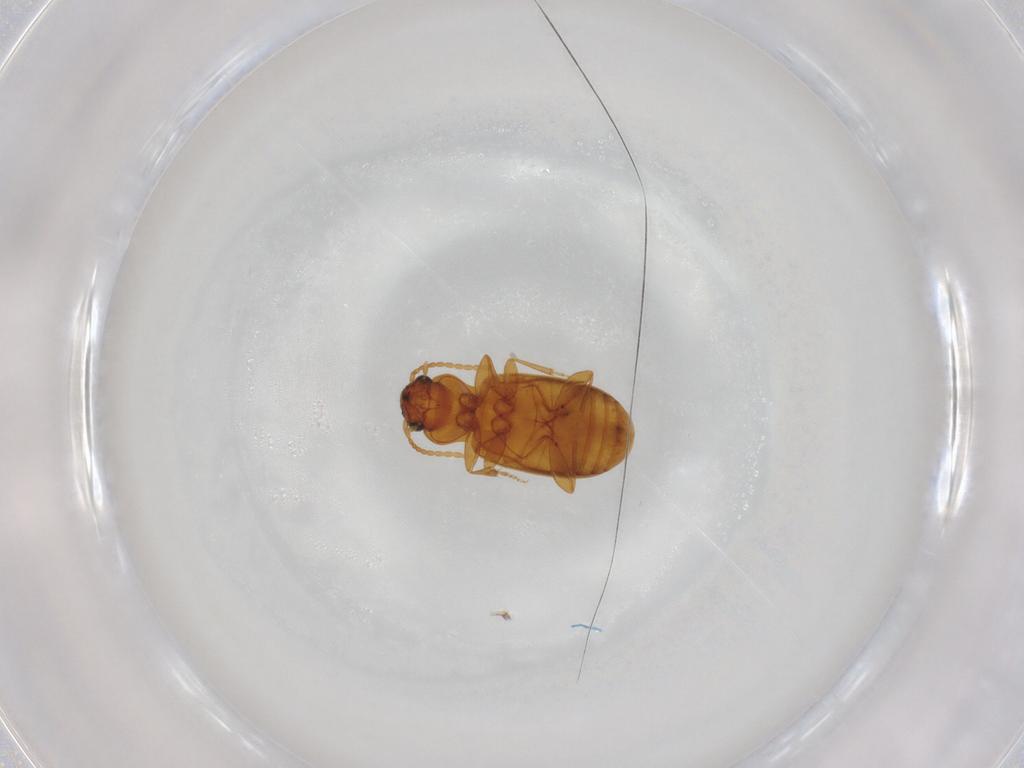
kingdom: Animalia
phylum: Arthropoda
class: Insecta
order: Coleoptera
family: Carabidae
